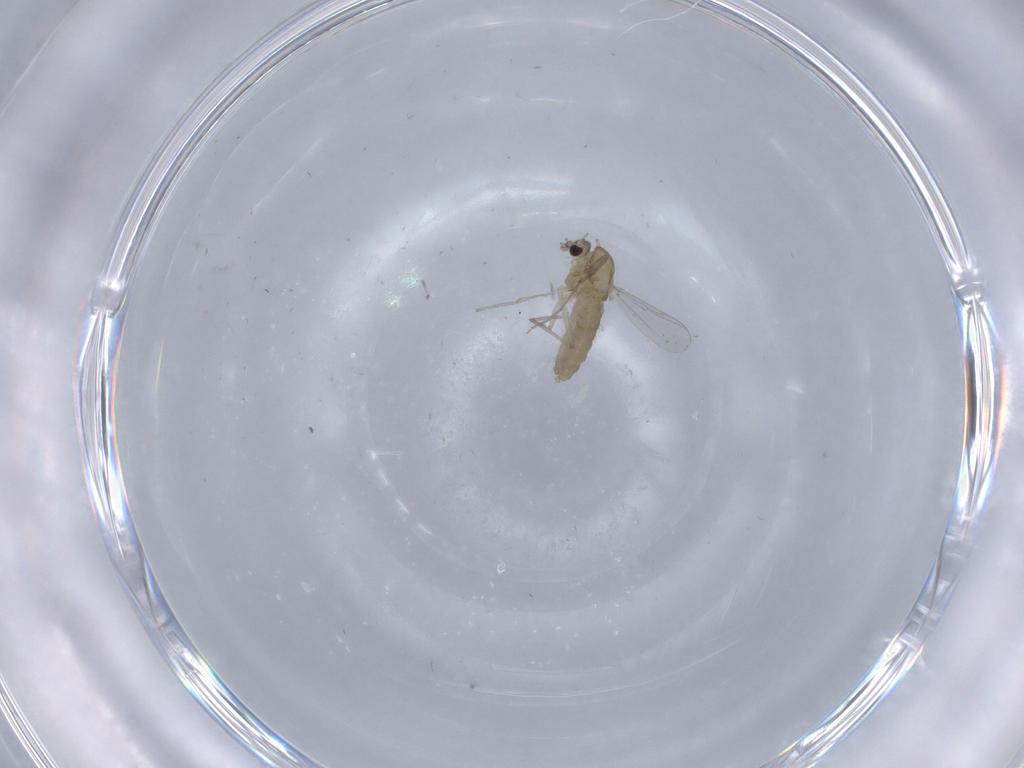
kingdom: Animalia
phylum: Arthropoda
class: Insecta
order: Diptera
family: Chironomidae
